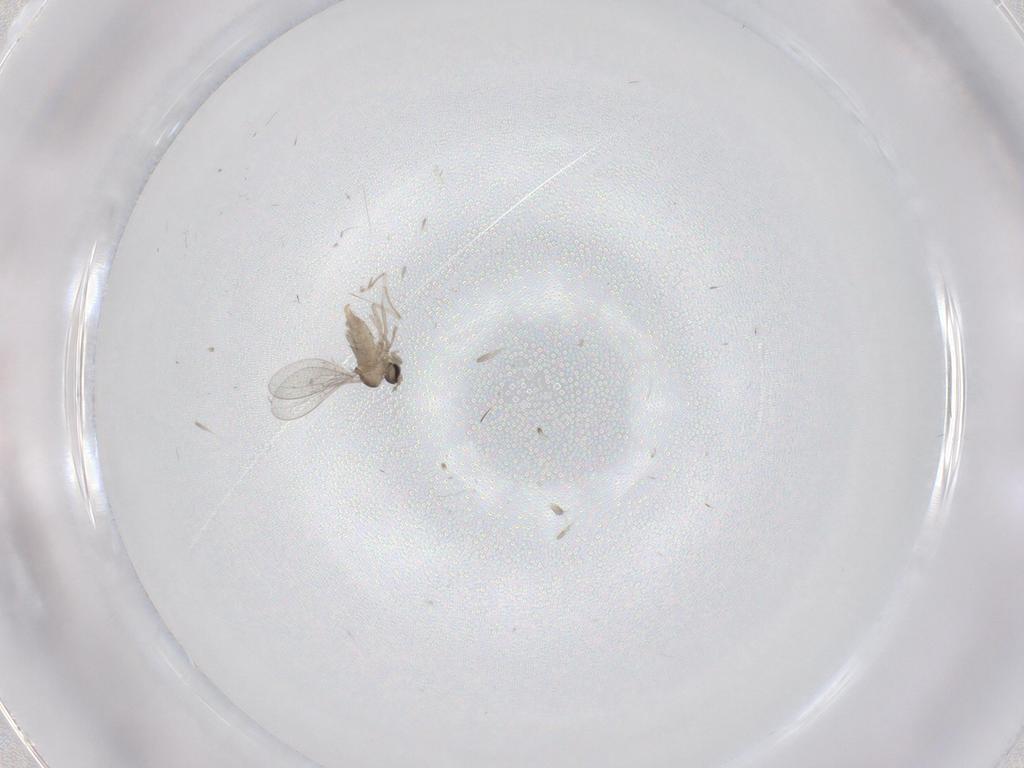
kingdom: Animalia
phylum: Arthropoda
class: Insecta
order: Diptera
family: Cecidomyiidae
